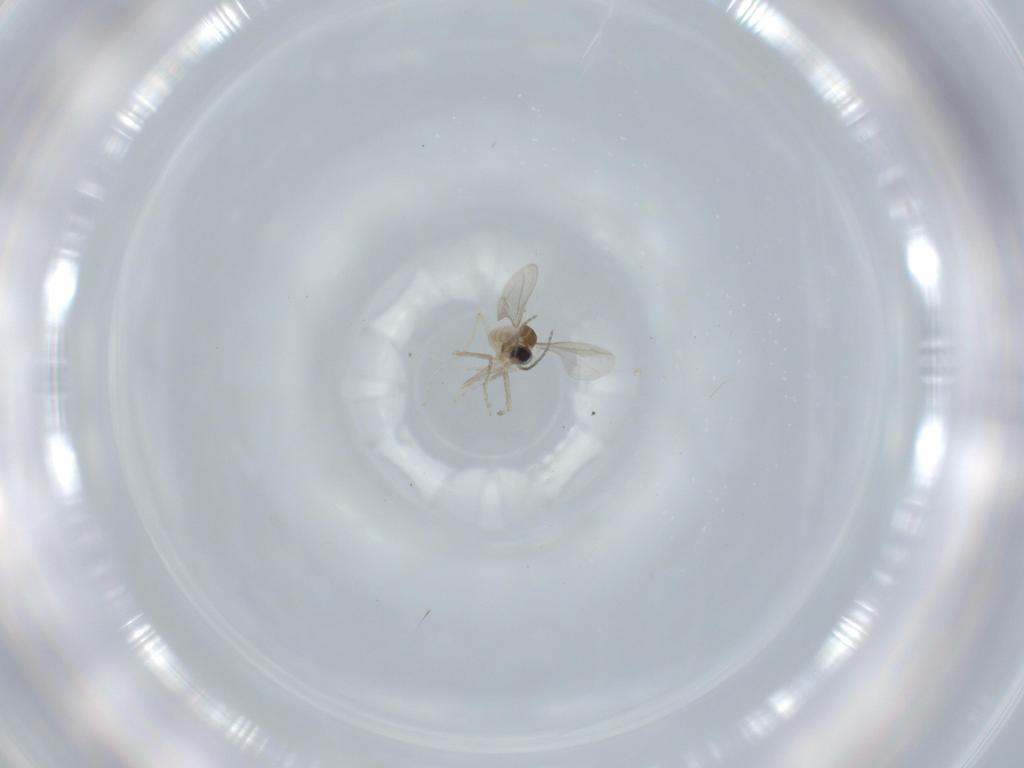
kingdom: Animalia
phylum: Arthropoda
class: Insecta
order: Diptera
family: Cecidomyiidae
